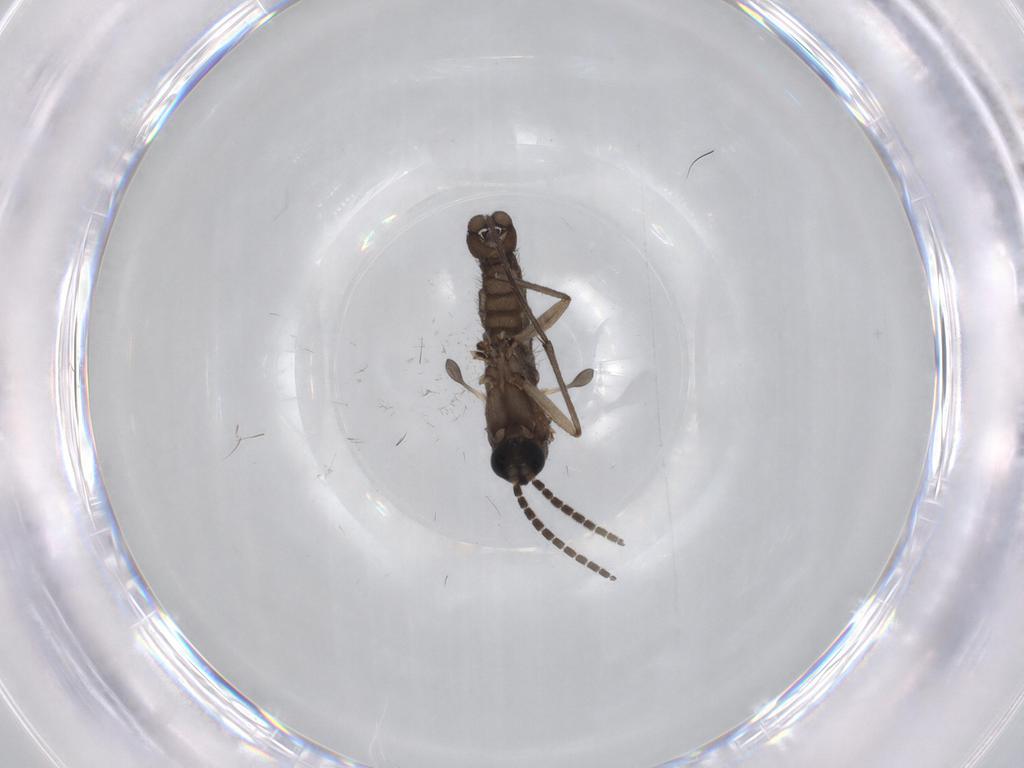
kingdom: Animalia
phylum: Arthropoda
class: Insecta
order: Diptera
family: Sciaridae
